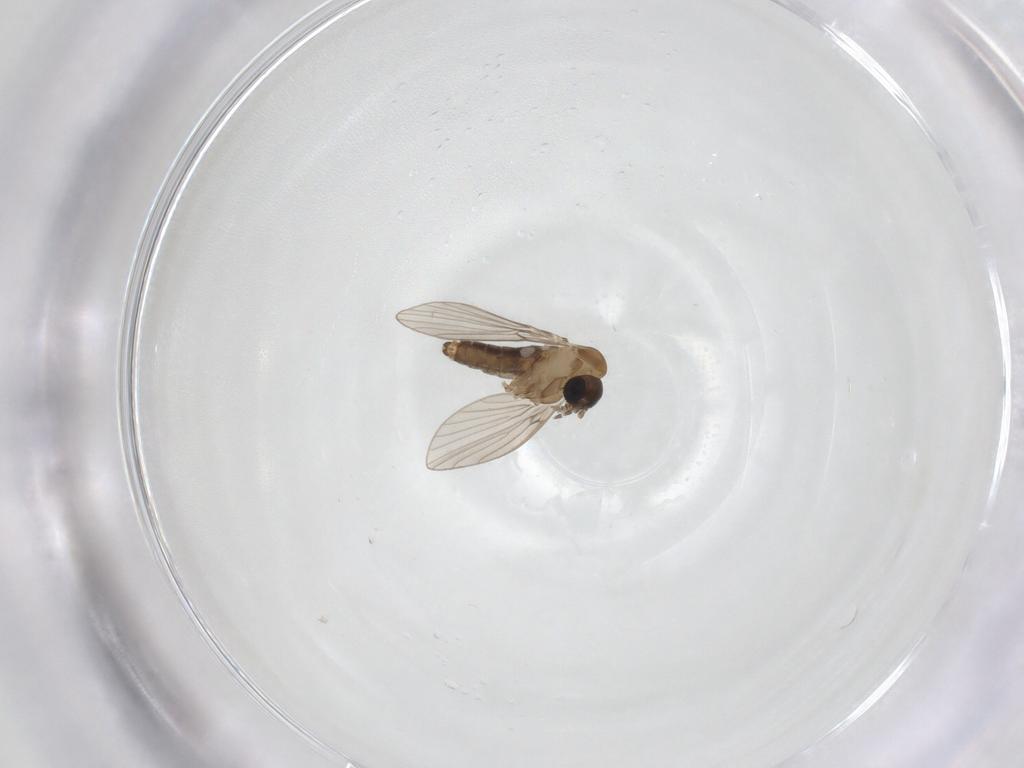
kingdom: Animalia
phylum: Arthropoda
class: Insecta
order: Diptera
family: Psychodidae
